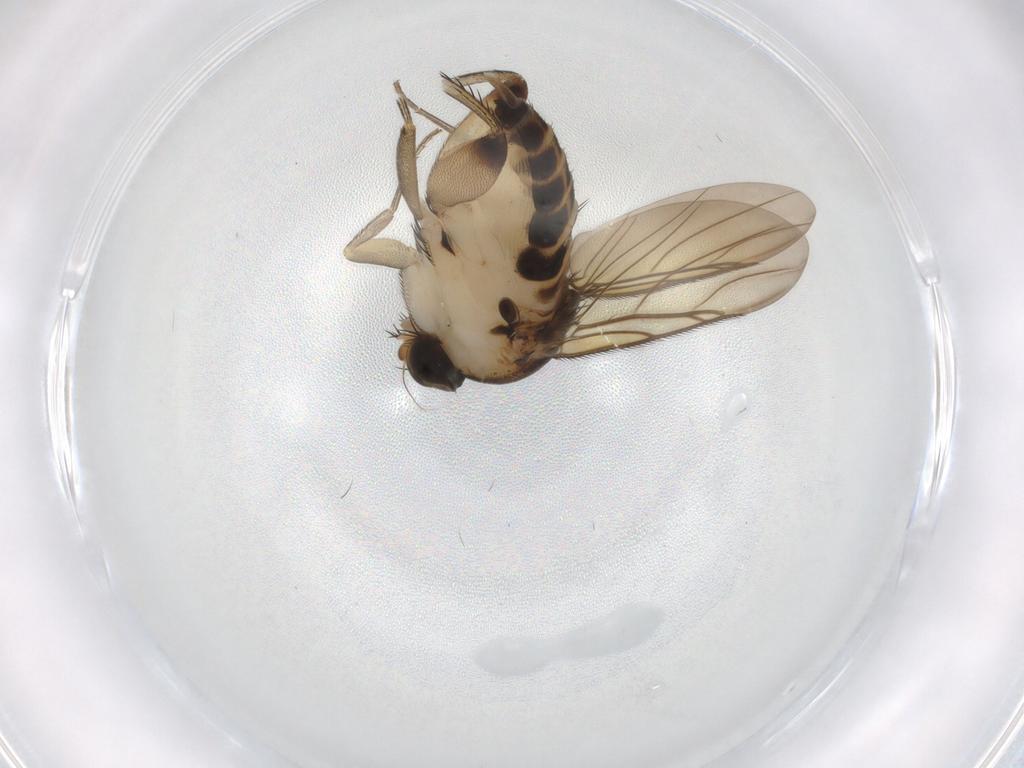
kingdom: Animalia
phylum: Arthropoda
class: Insecta
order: Diptera
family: Phoridae
